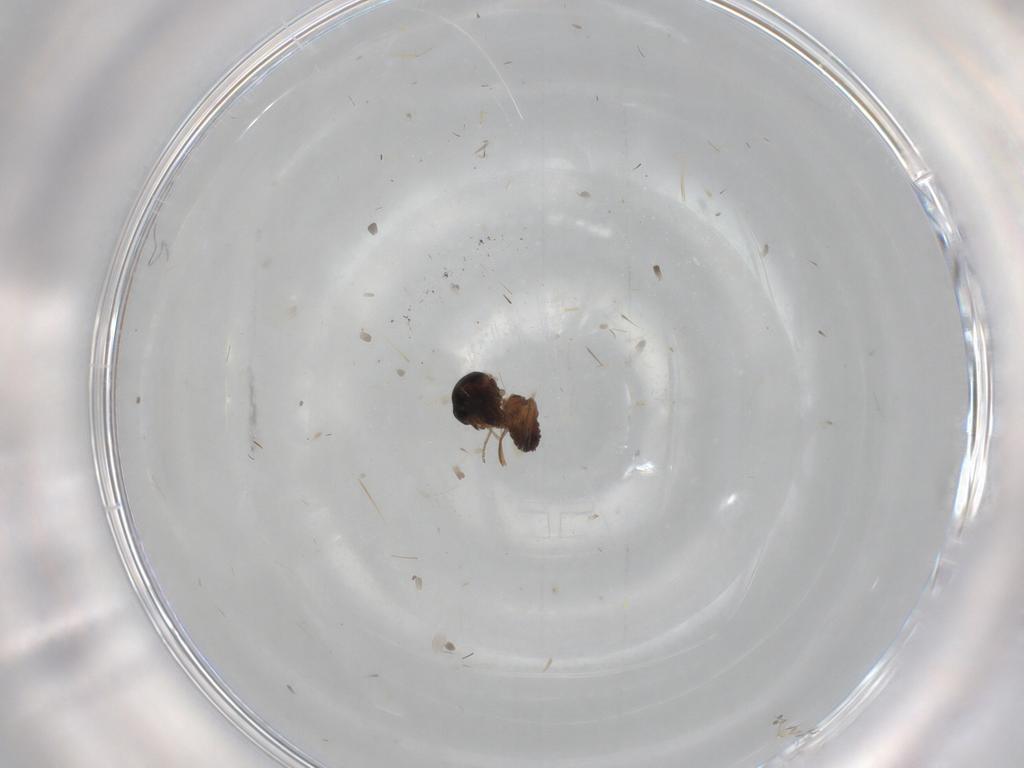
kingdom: Animalia
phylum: Arthropoda
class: Insecta
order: Diptera
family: Ceratopogonidae
